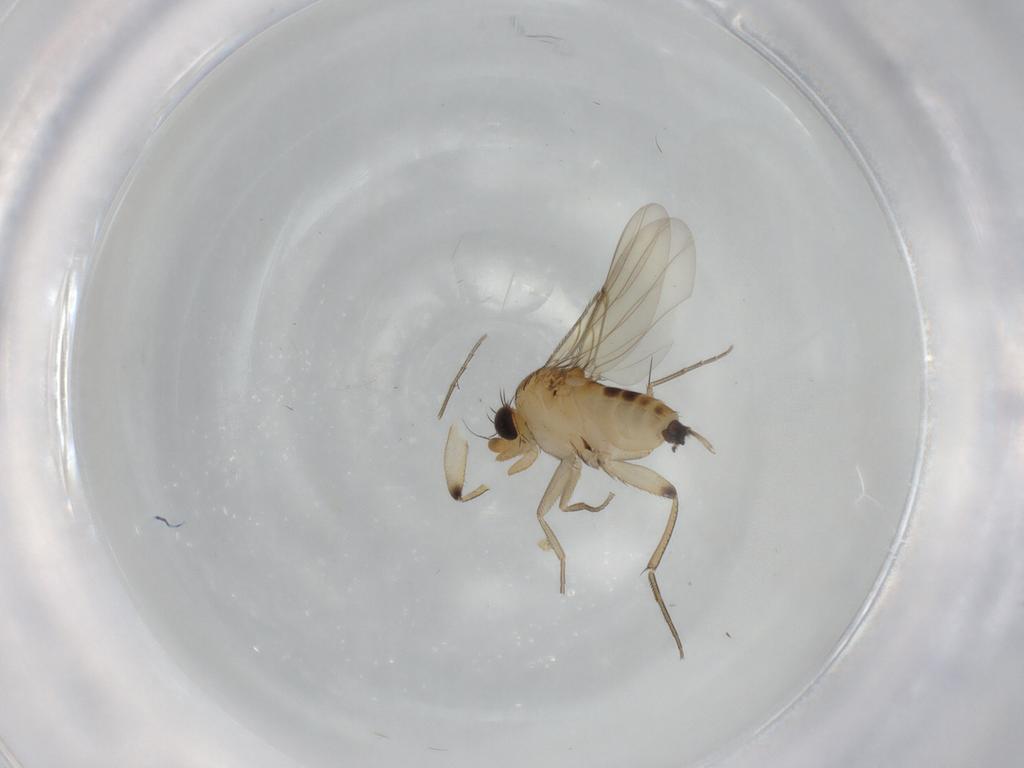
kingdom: Animalia
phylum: Arthropoda
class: Insecta
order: Diptera
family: Phoridae
